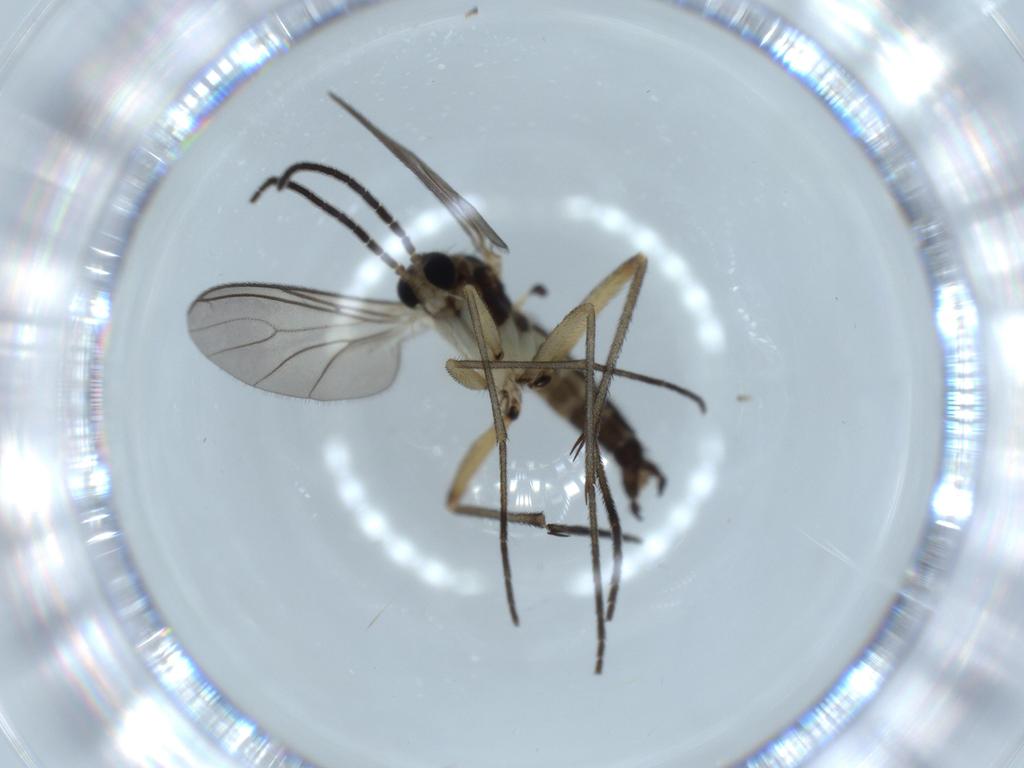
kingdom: Animalia
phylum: Arthropoda
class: Insecta
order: Diptera
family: Sciaridae
